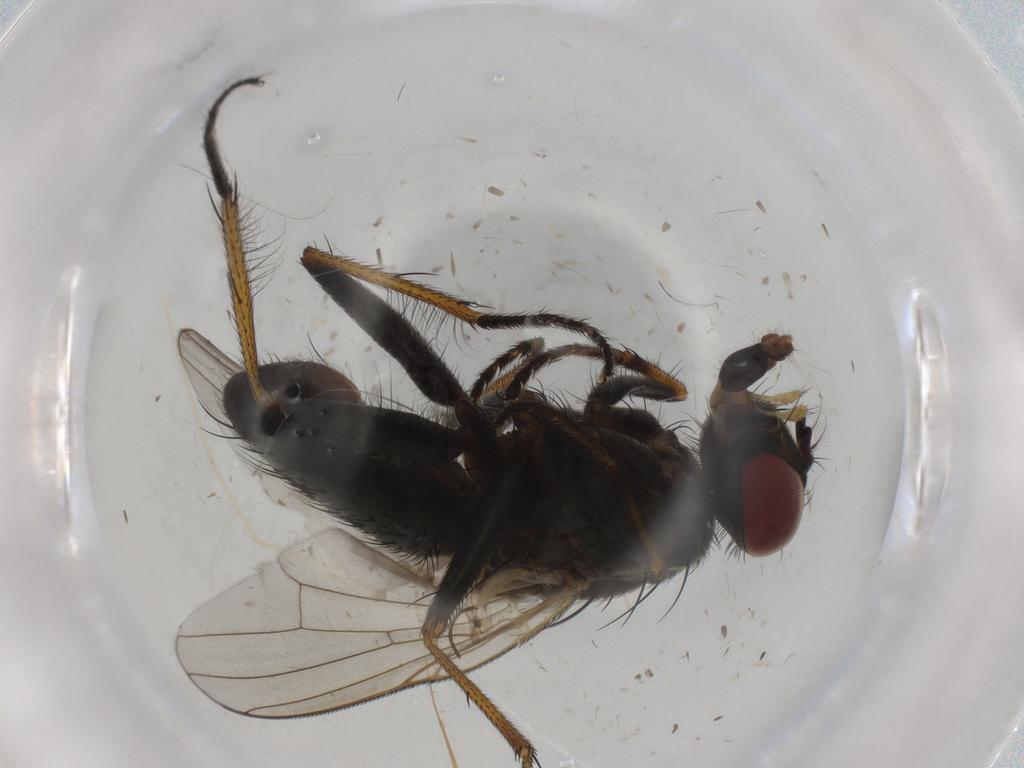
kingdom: Animalia
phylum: Arthropoda
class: Insecta
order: Diptera
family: Muscidae
